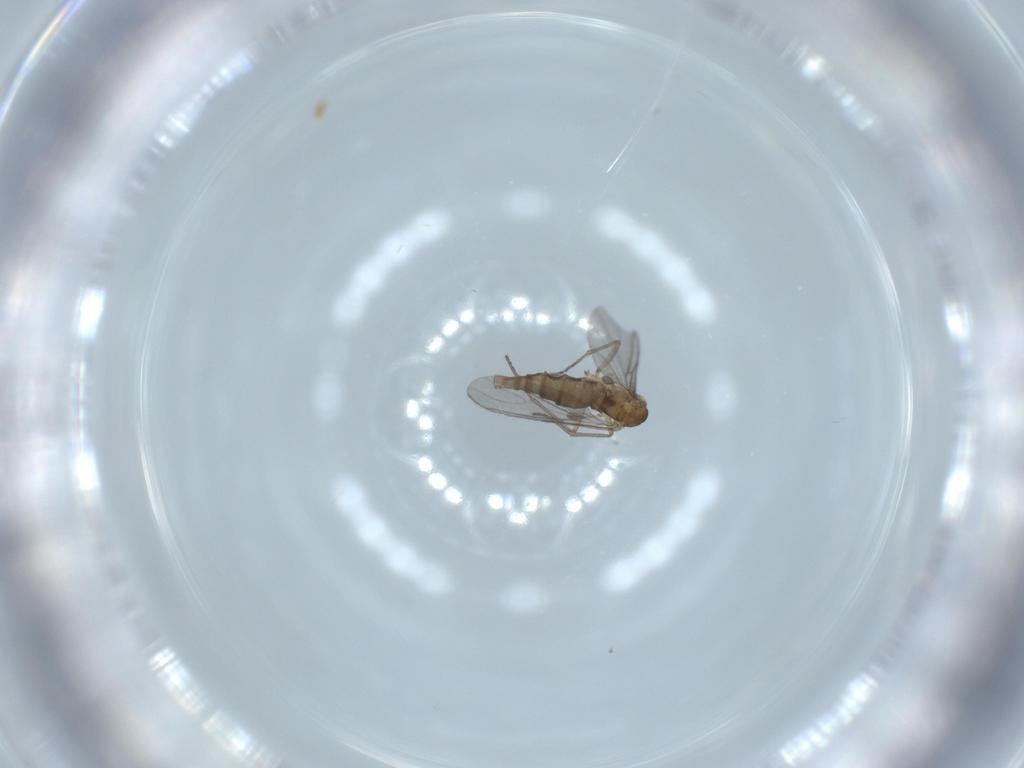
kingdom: Animalia
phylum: Arthropoda
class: Insecta
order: Diptera
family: Sciaridae
